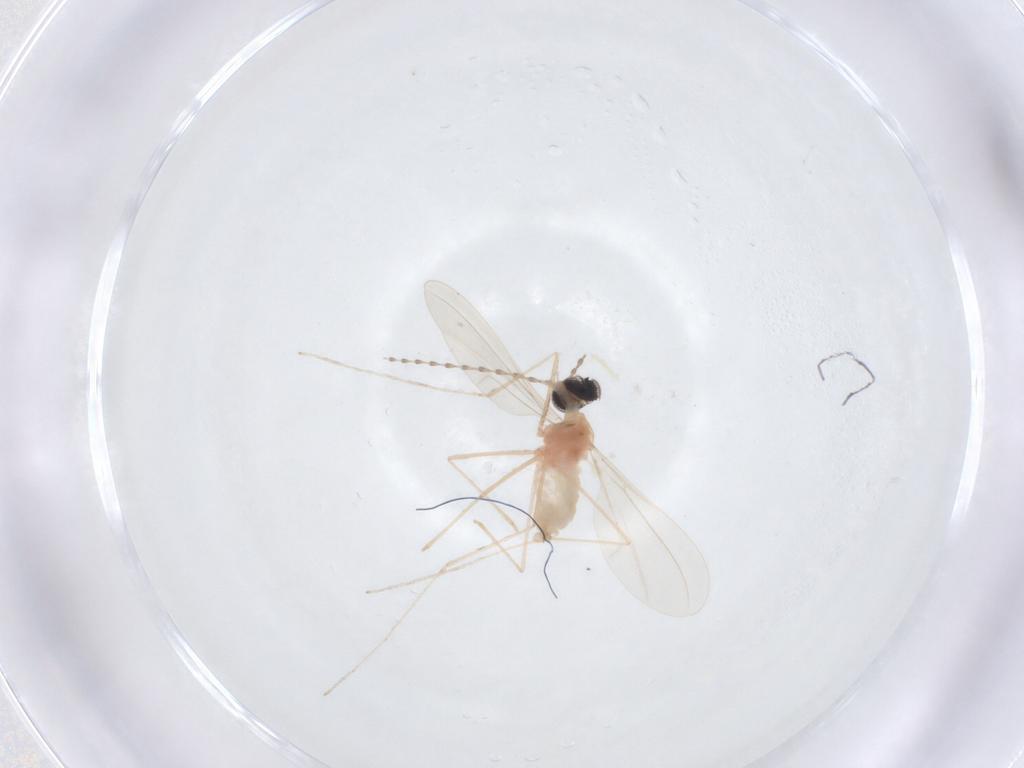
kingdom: Animalia
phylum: Arthropoda
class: Insecta
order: Diptera
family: Cecidomyiidae
